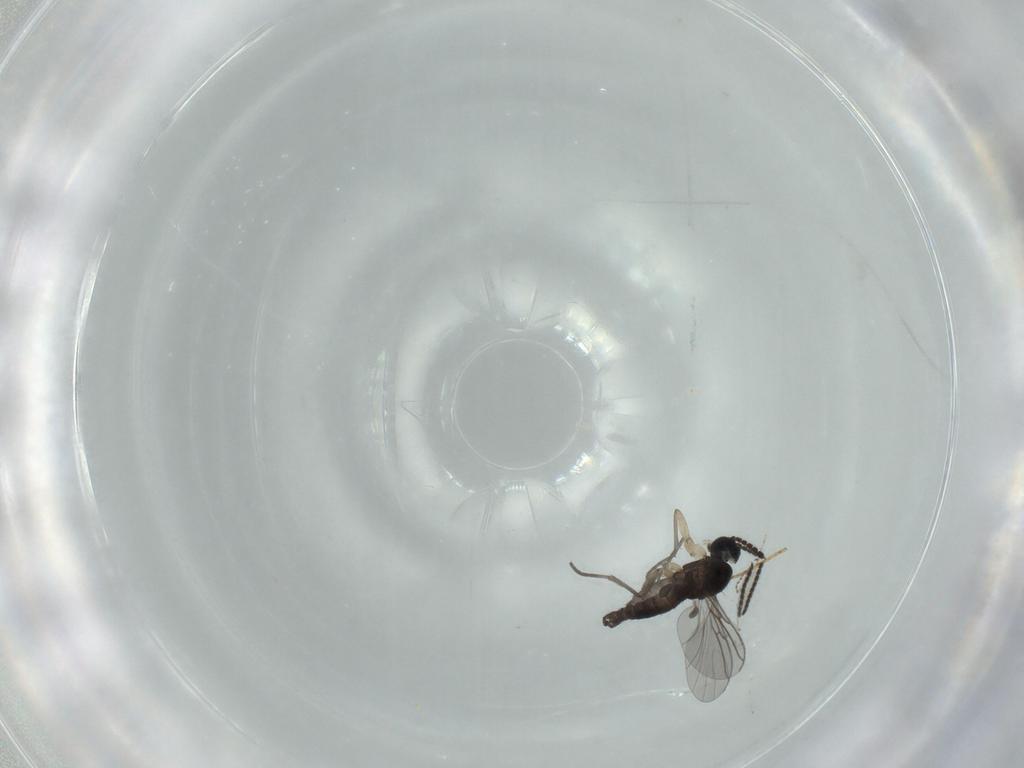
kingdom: Animalia
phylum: Arthropoda
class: Insecta
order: Diptera
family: Sciaridae
